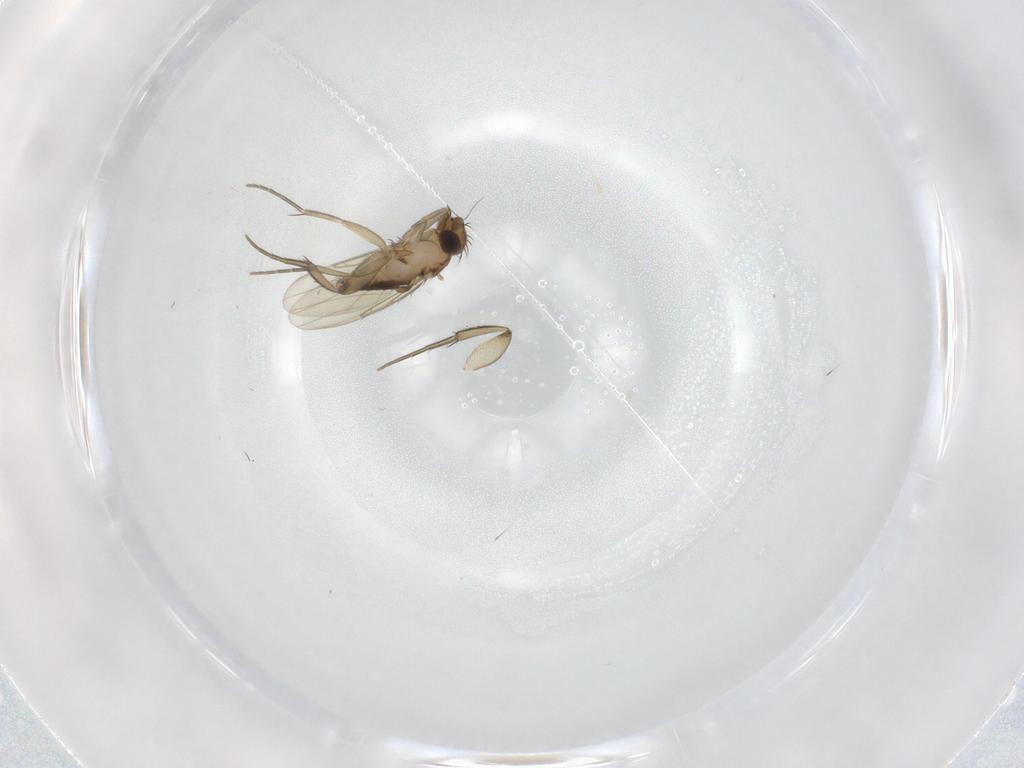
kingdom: Animalia
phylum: Arthropoda
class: Insecta
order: Diptera
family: Phoridae
